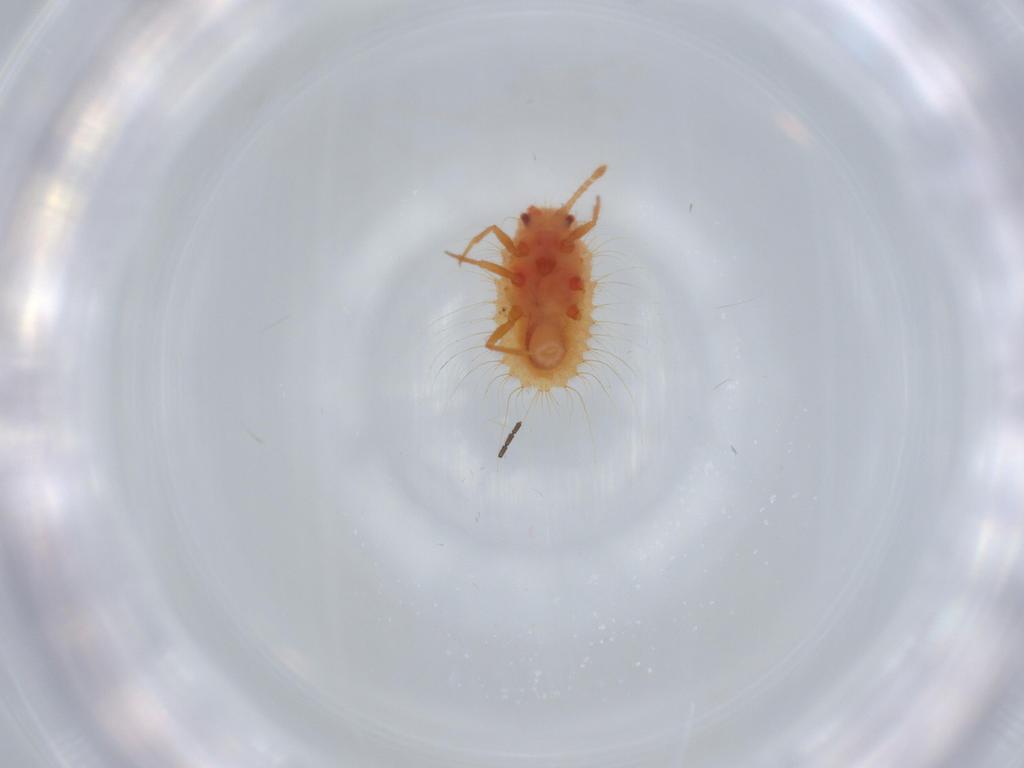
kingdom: Animalia
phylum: Arthropoda
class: Insecta
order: Hemiptera
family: Coccoidea_incertae_sedis
